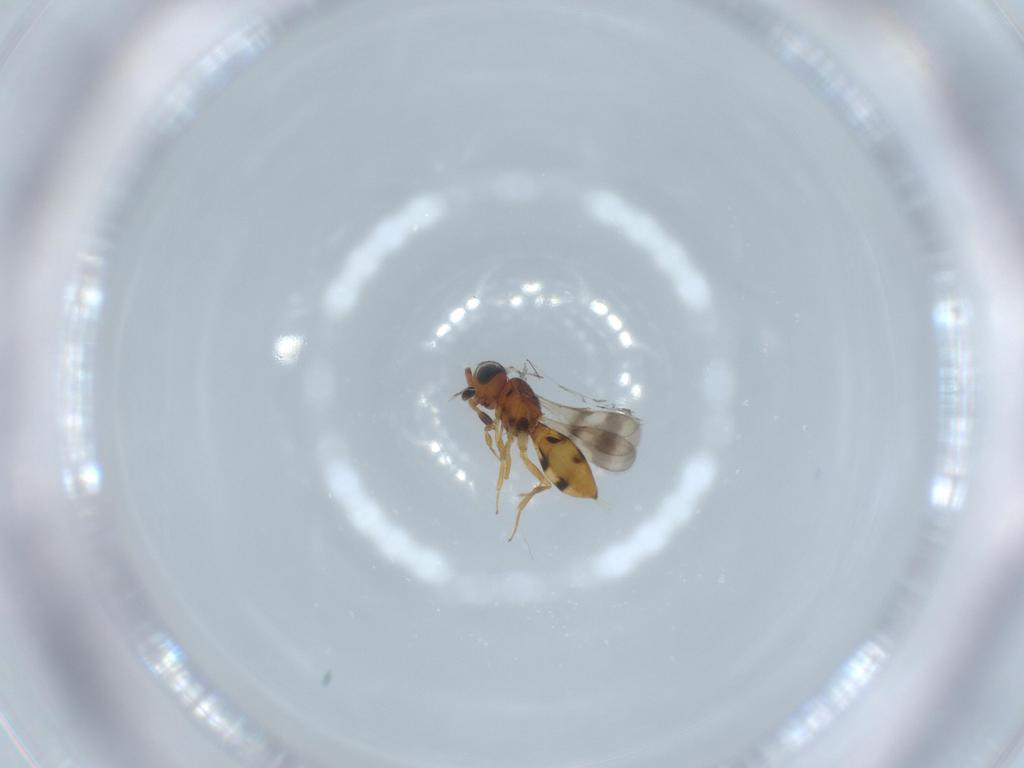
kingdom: Animalia
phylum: Arthropoda
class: Insecta
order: Hymenoptera
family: Scelionidae
